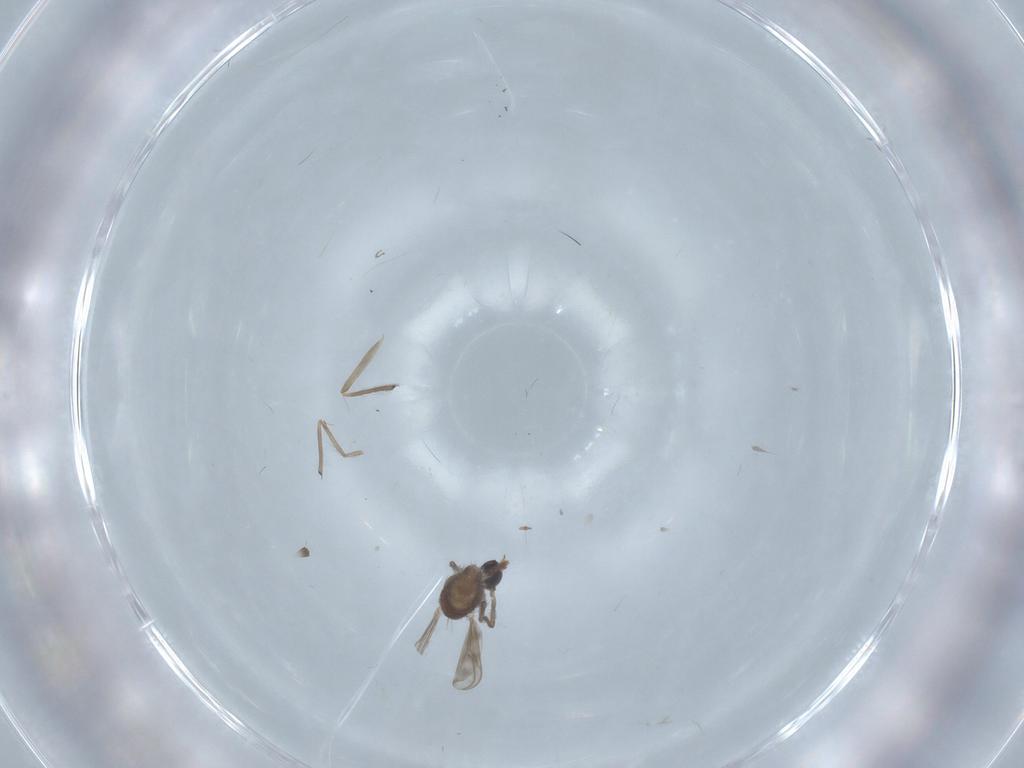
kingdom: Animalia
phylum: Arthropoda
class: Insecta
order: Diptera
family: Chironomidae
